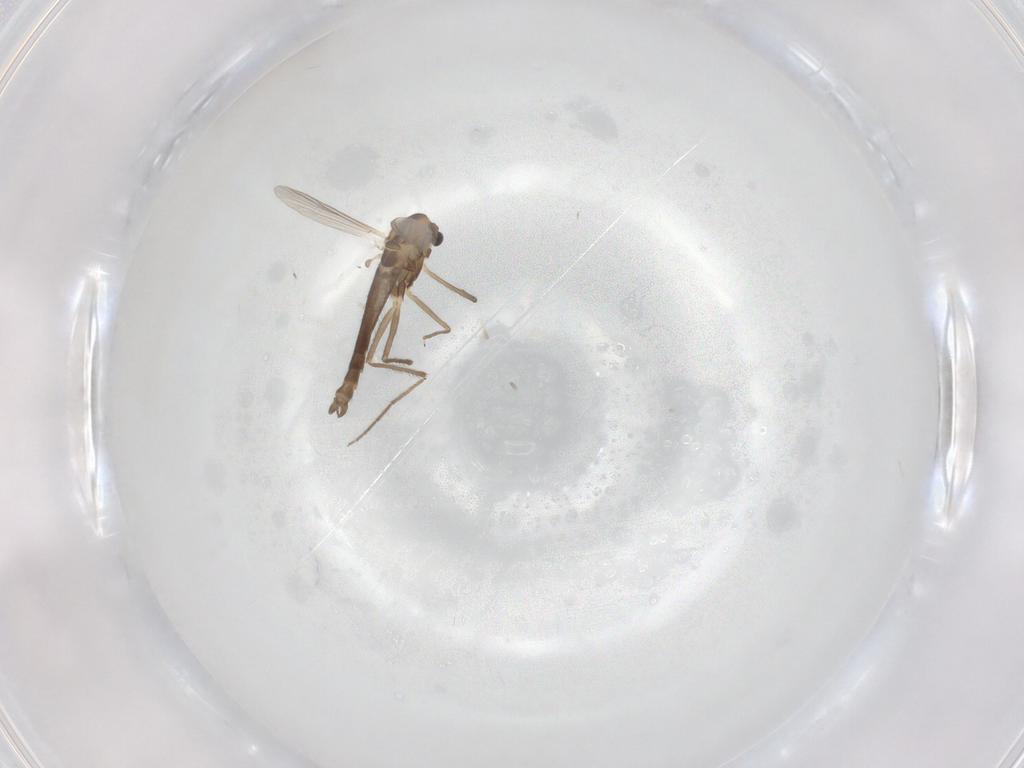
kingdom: Animalia
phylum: Arthropoda
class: Insecta
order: Diptera
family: Chironomidae
